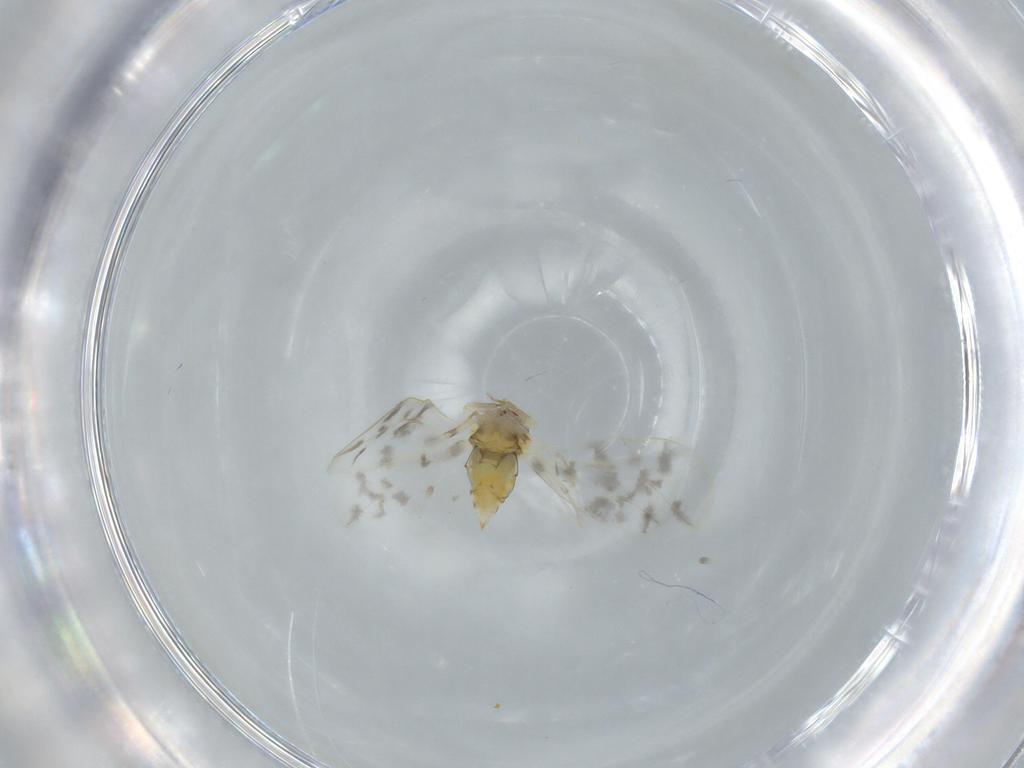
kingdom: Animalia
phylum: Arthropoda
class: Insecta
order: Hemiptera
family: Aleyrodidae
